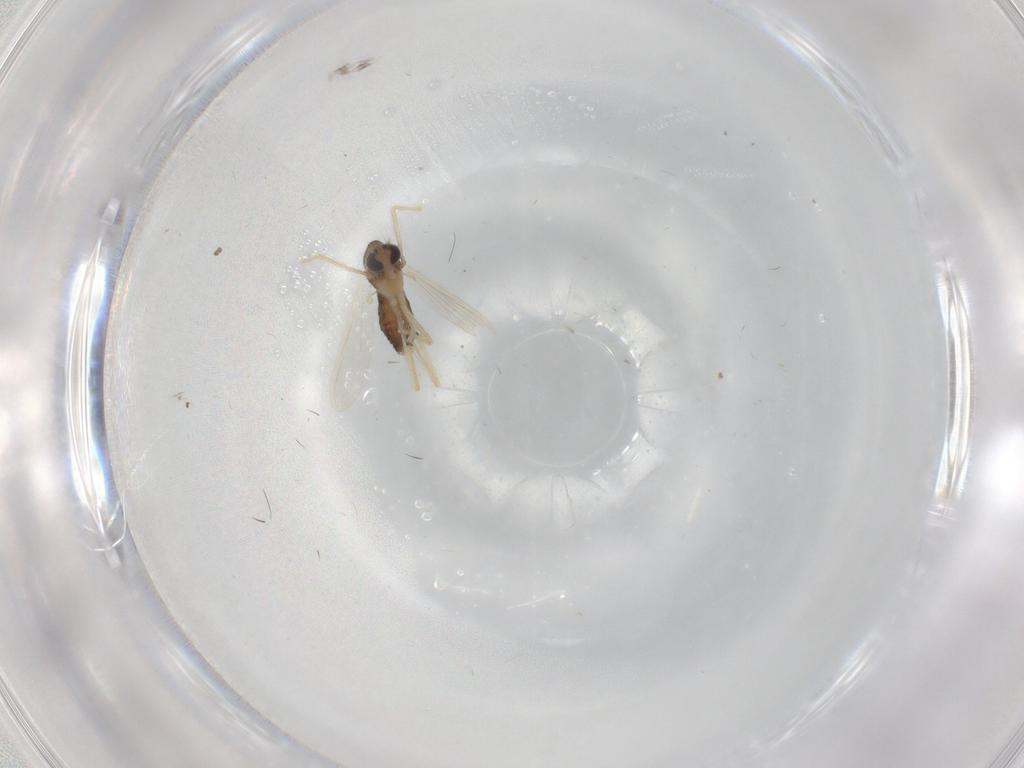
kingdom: Animalia
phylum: Arthropoda
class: Insecta
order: Diptera
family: Chironomidae
